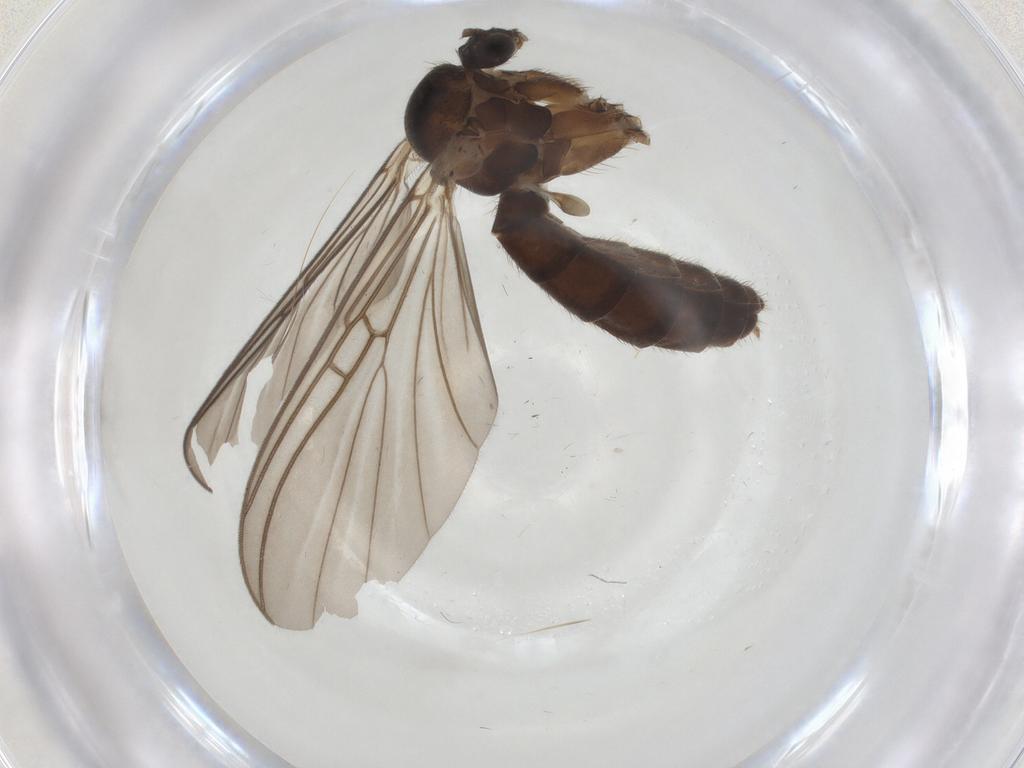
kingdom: Animalia
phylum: Arthropoda
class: Insecta
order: Diptera
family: Mycetophilidae
